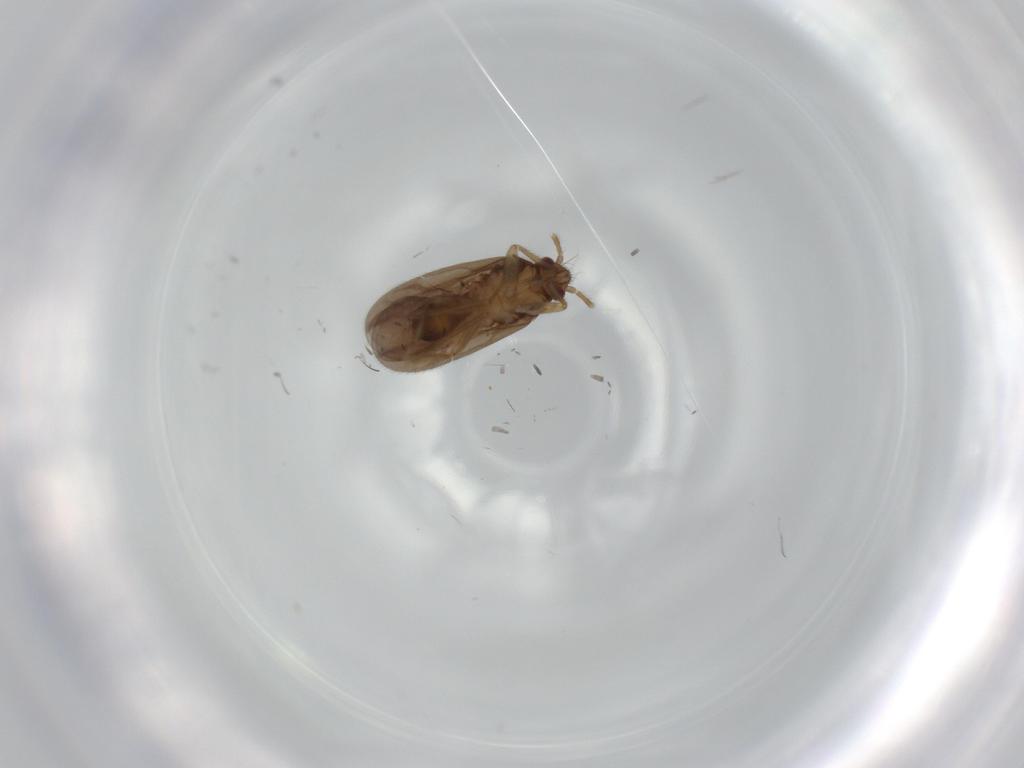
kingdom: Animalia
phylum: Arthropoda
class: Insecta
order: Hemiptera
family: Ceratocombidae
